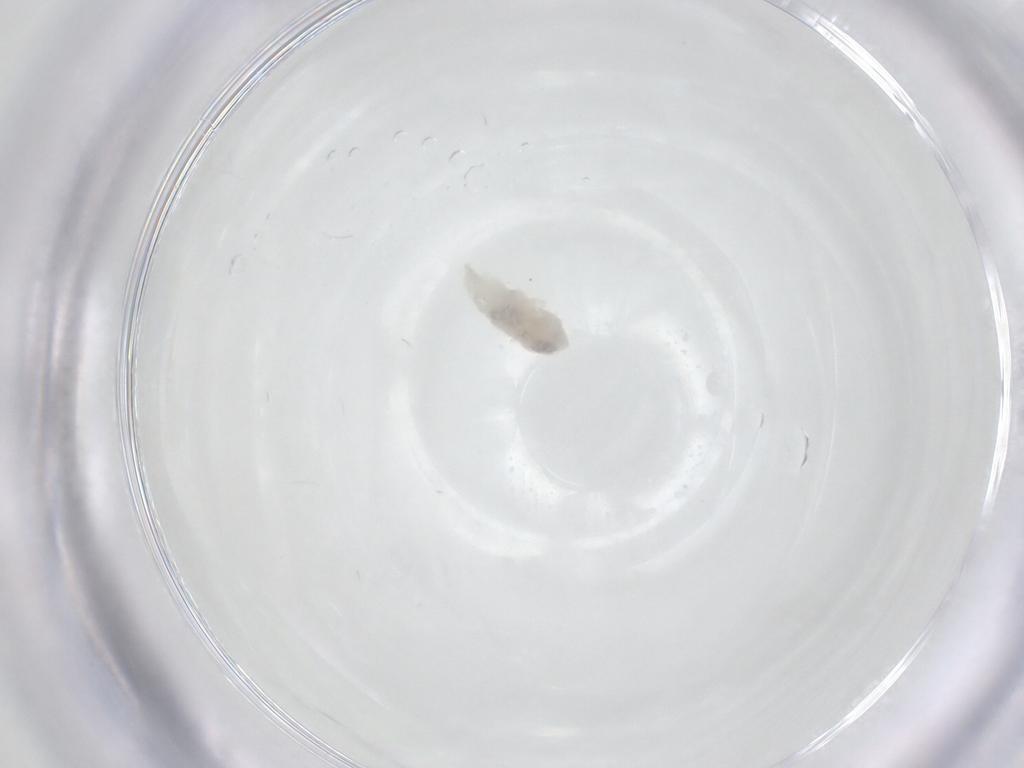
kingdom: Animalia
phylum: Arthropoda
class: Arachnida
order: Trombidiformes
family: Rhagidiidae
